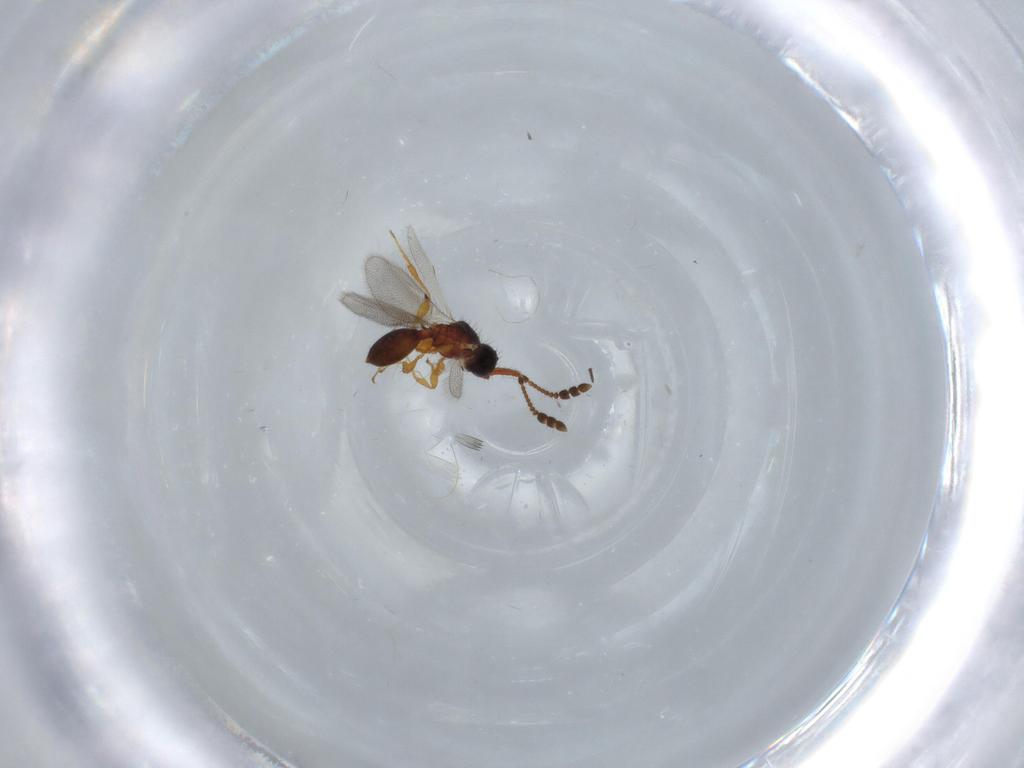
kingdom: Animalia
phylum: Arthropoda
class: Insecta
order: Hymenoptera
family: Diapriidae
